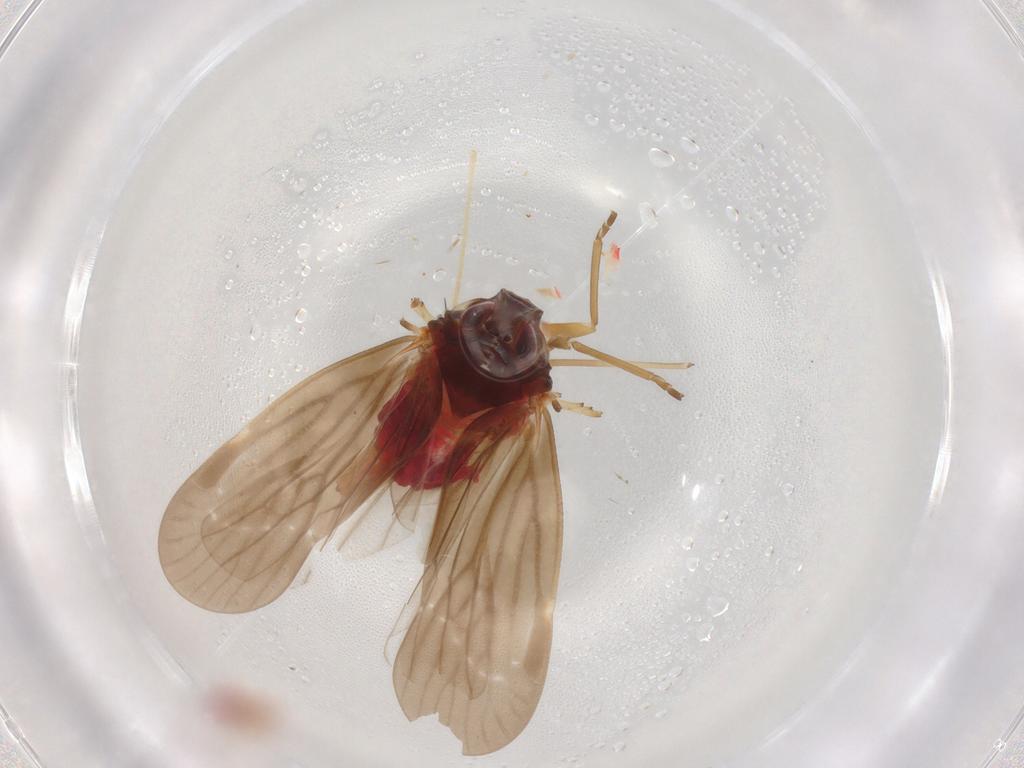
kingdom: Animalia
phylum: Arthropoda
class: Insecta
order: Hemiptera
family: Derbidae
